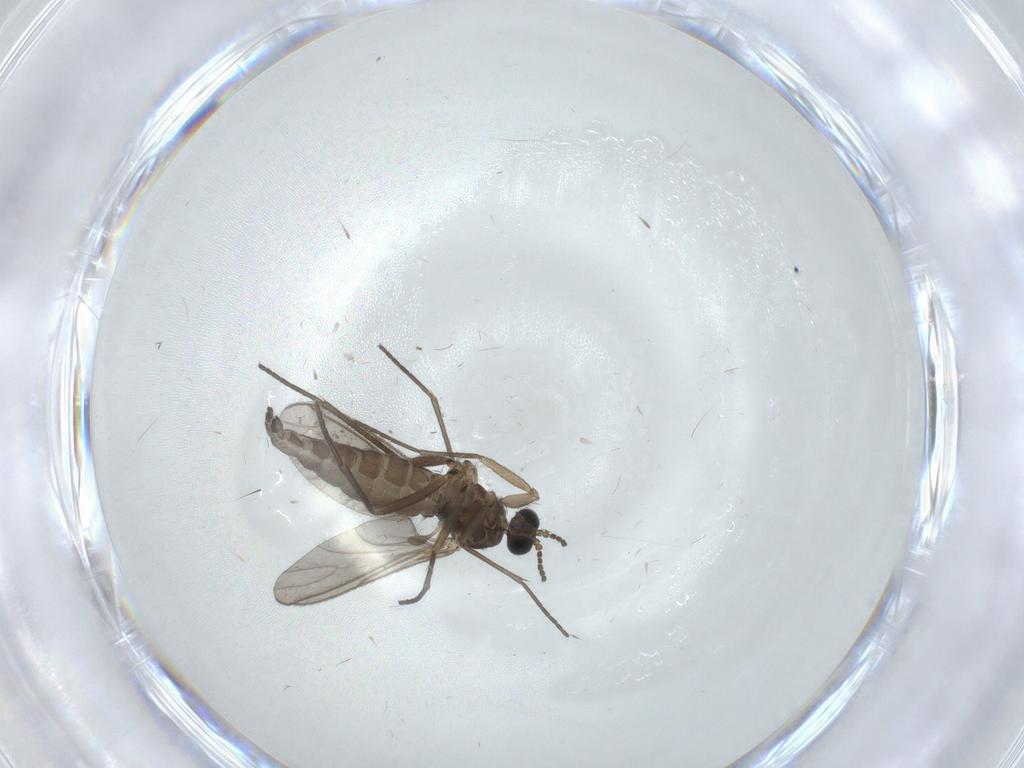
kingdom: Animalia
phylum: Arthropoda
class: Insecta
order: Diptera
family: Sciaridae
